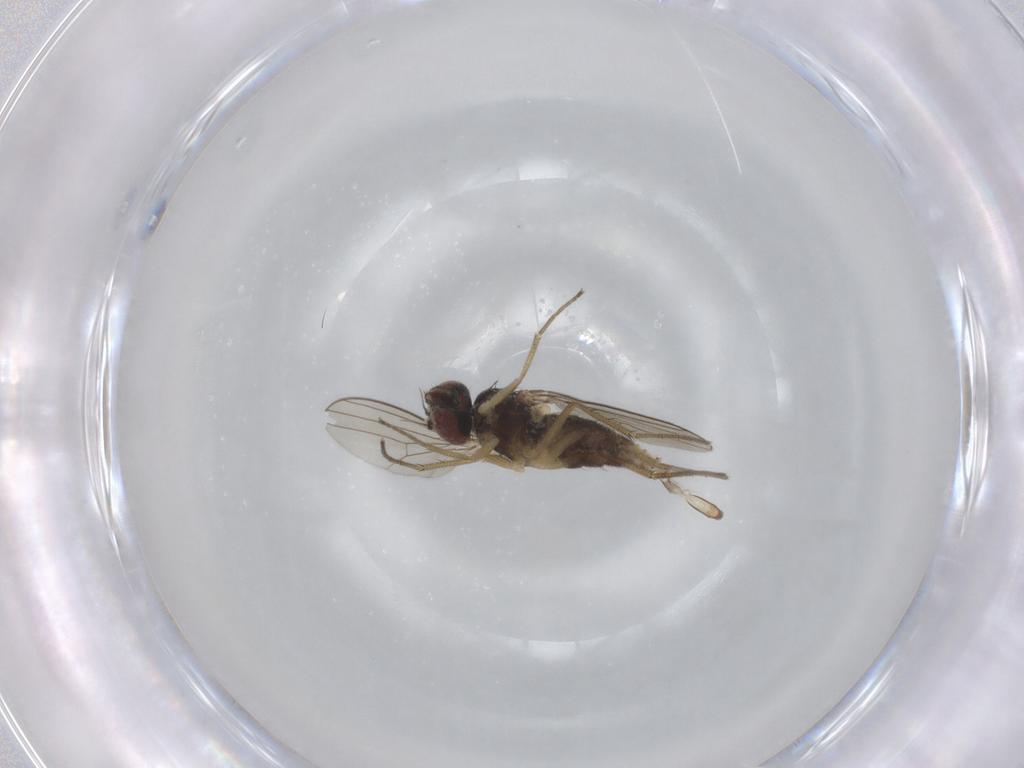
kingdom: Animalia
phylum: Arthropoda
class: Insecta
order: Diptera
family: Dolichopodidae
